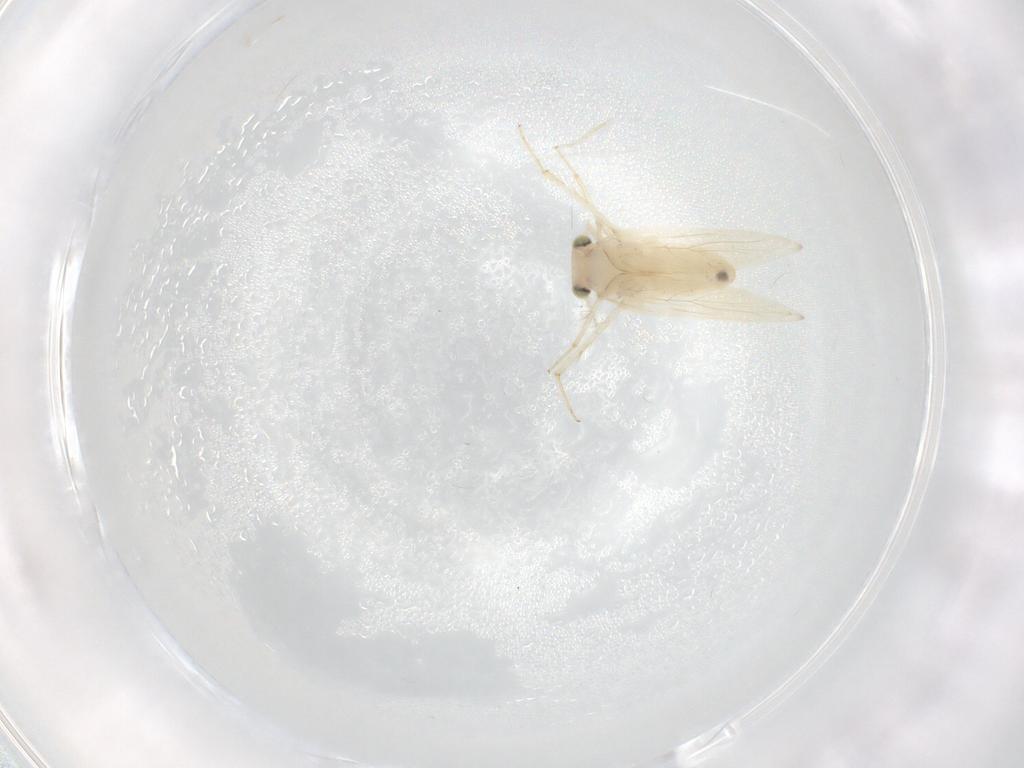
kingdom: Animalia
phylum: Arthropoda
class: Insecta
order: Psocodea
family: Lepidopsocidae
